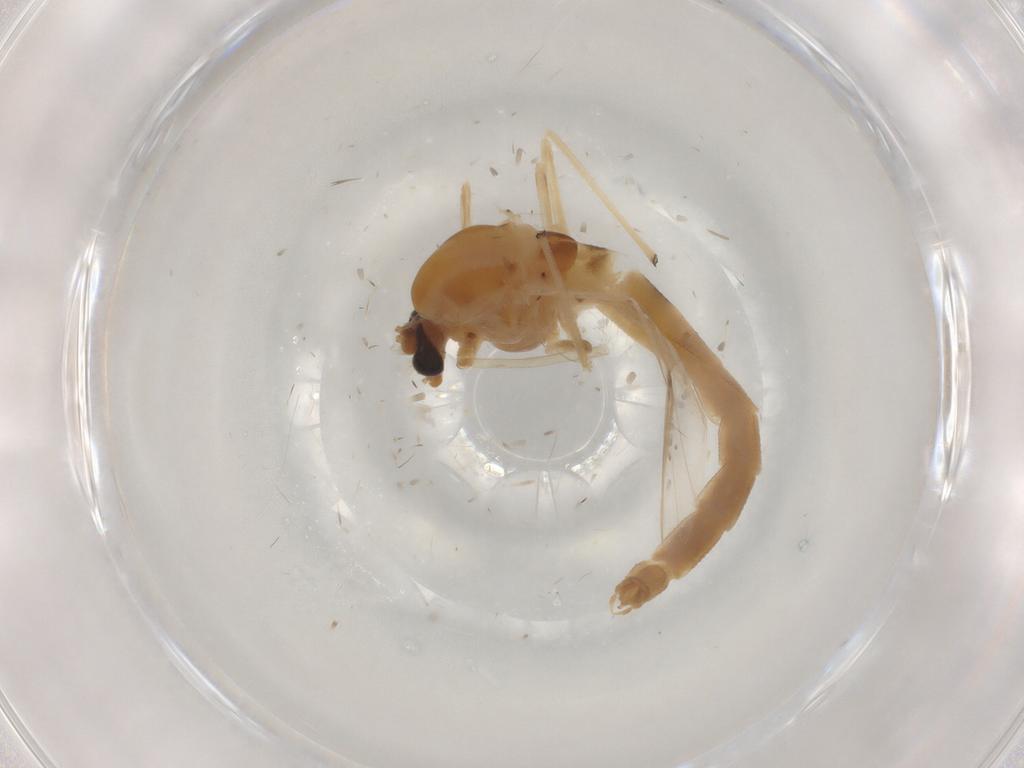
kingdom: Animalia
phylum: Arthropoda
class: Insecta
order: Diptera
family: Chironomidae
